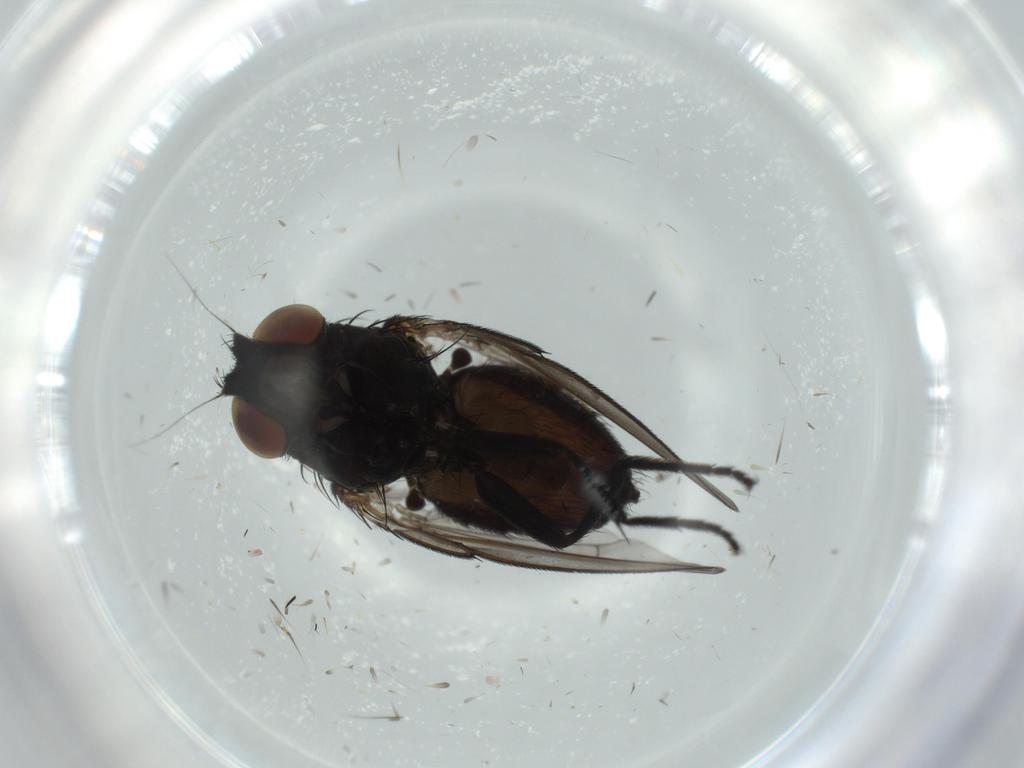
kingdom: Animalia
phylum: Arthropoda
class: Insecta
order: Diptera
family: Milichiidae
